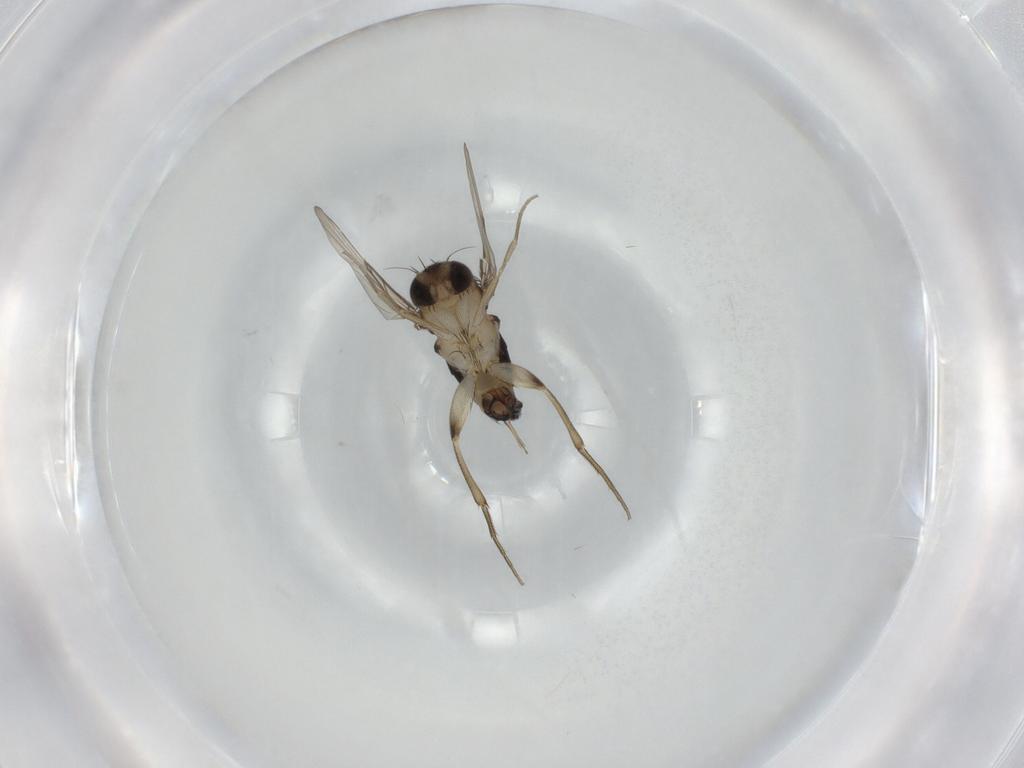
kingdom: Animalia
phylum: Arthropoda
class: Insecta
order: Diptera
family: Phoridae
